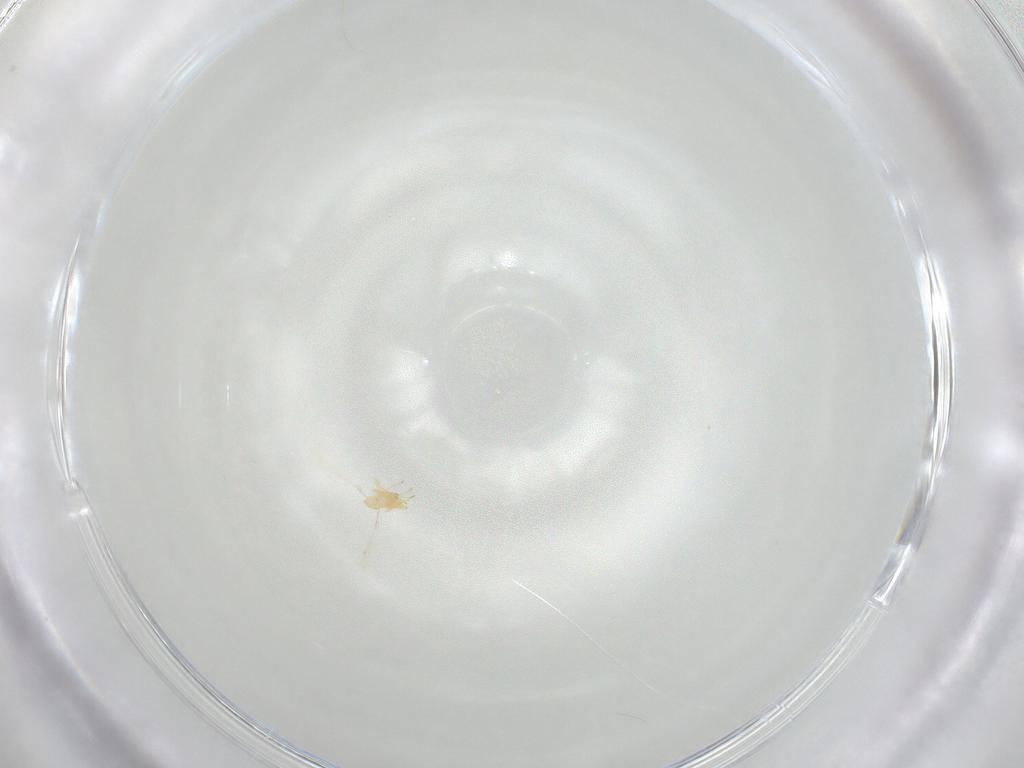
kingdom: Animalia
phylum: Arthropoda
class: Insecta
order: Hymenoptera
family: Mymaridae
